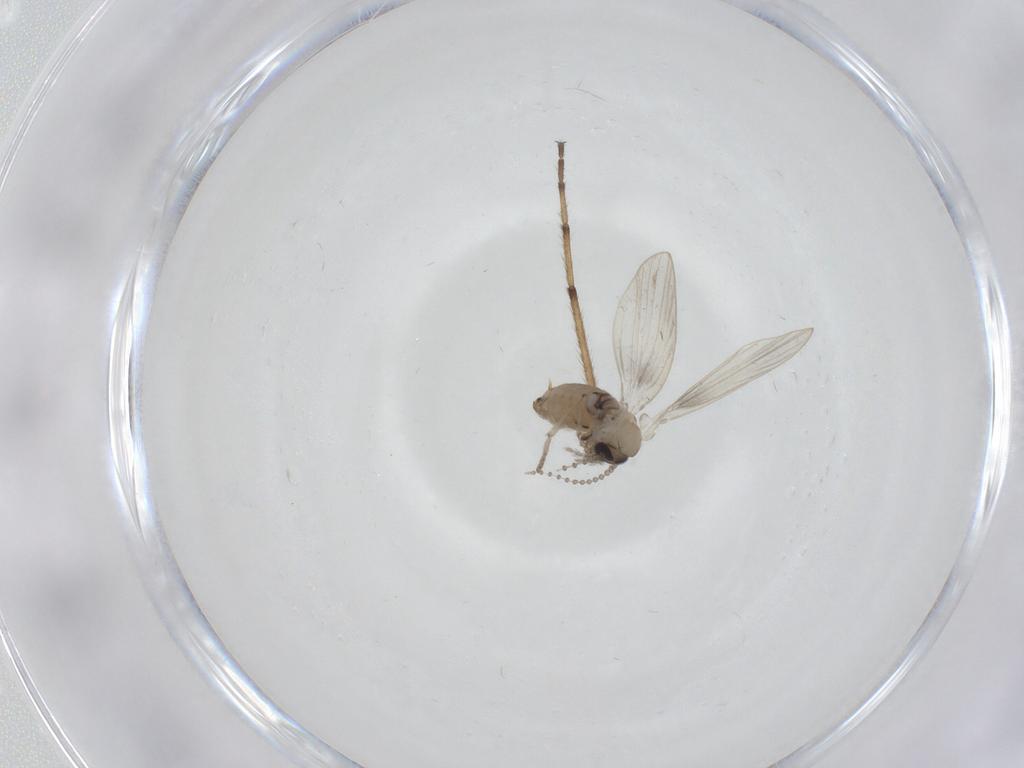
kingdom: Animalia
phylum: Arthropoda
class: Insecta
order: Diptera
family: Psychodidae
